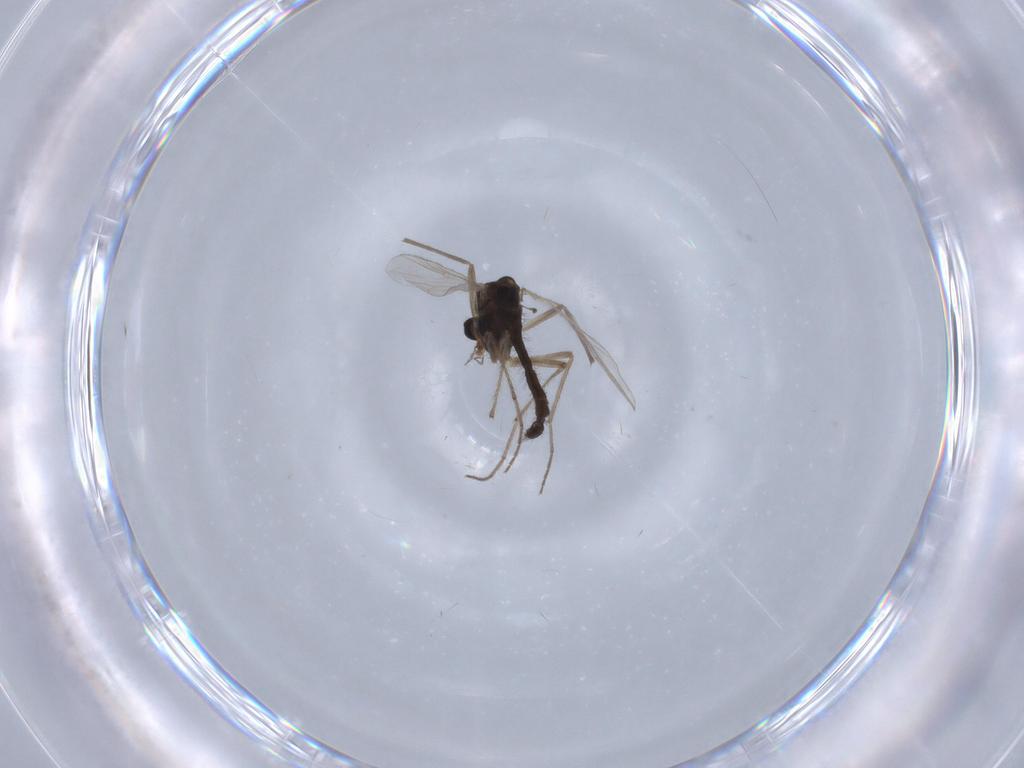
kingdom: Animalia
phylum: Arthropoda
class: Insecta
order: Diptera
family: Chironomidae
